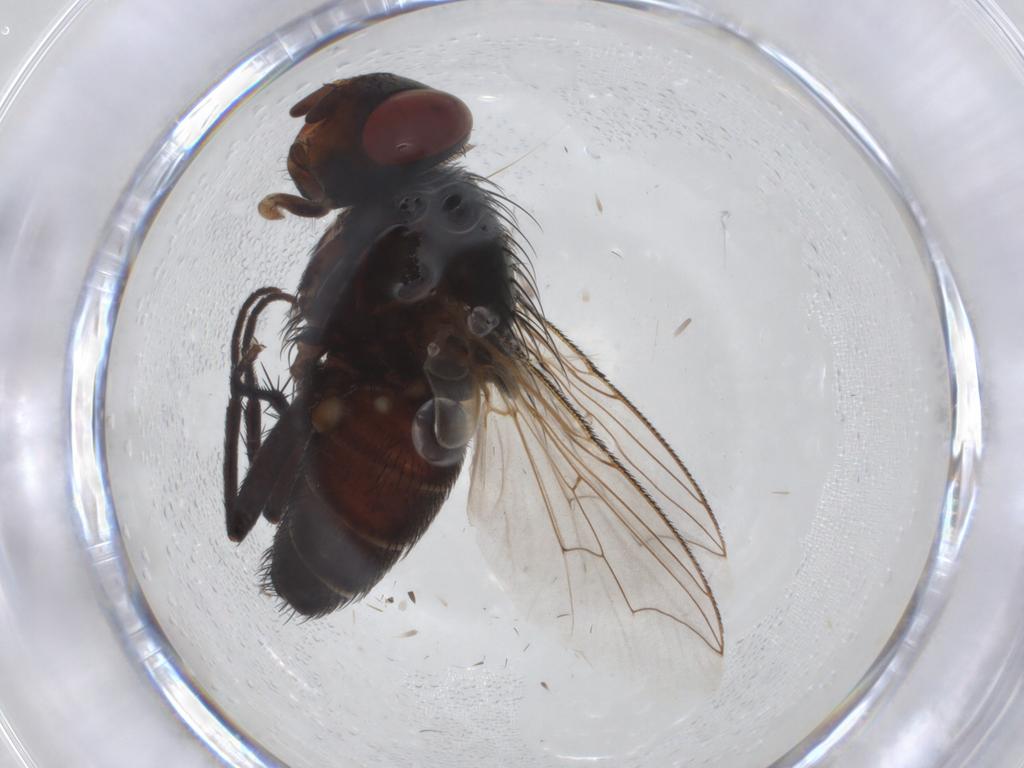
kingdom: Animalia
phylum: Arthropoda
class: Insecta
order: Diptera
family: Sarcophagidae
